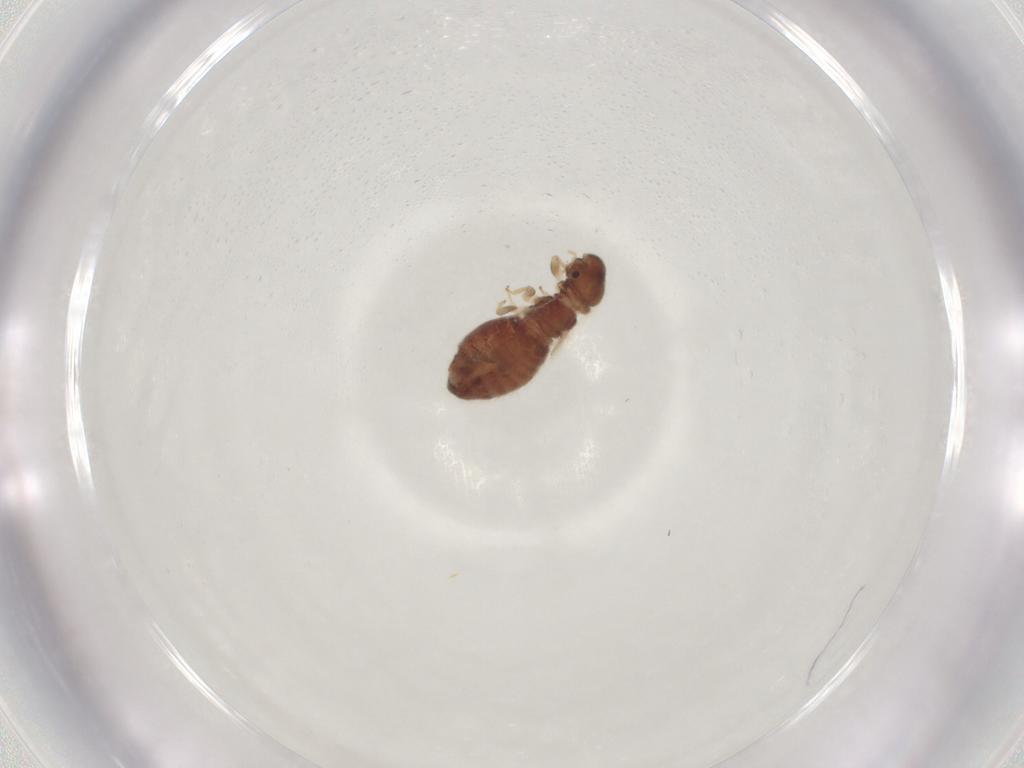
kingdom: Animalia
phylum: Arthropoda
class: Insecta
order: Psocodea
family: Archipsocidae
